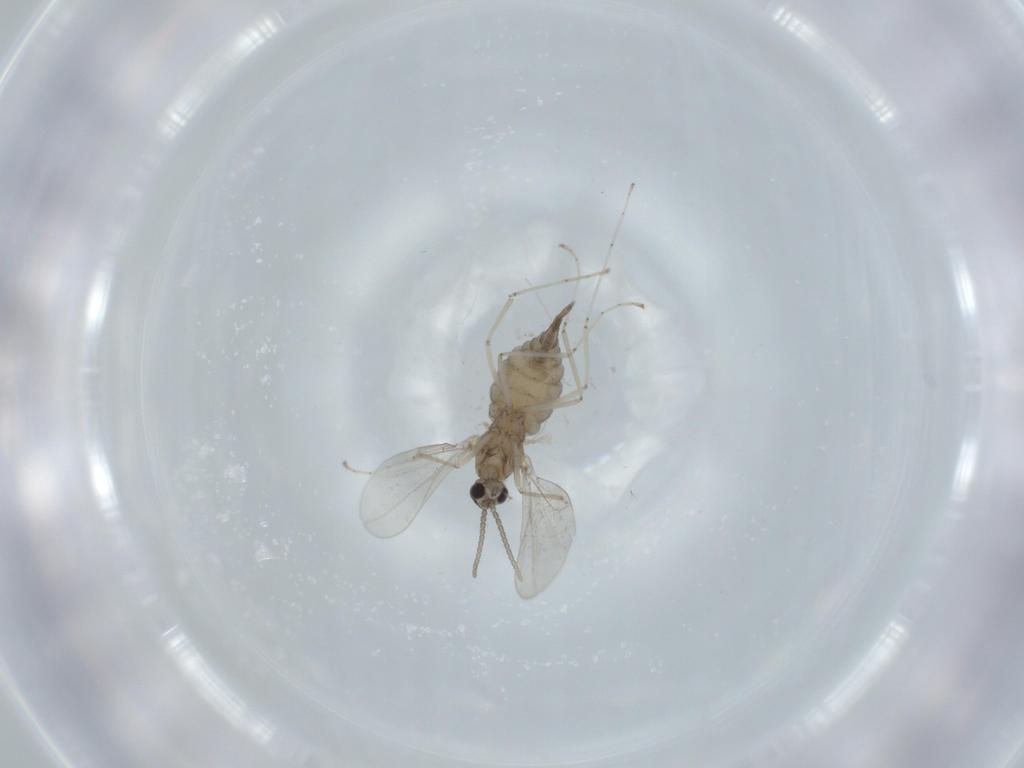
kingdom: Animalia
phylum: Arthropoda
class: Insecta
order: Diptera
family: Cecidomyiidae
